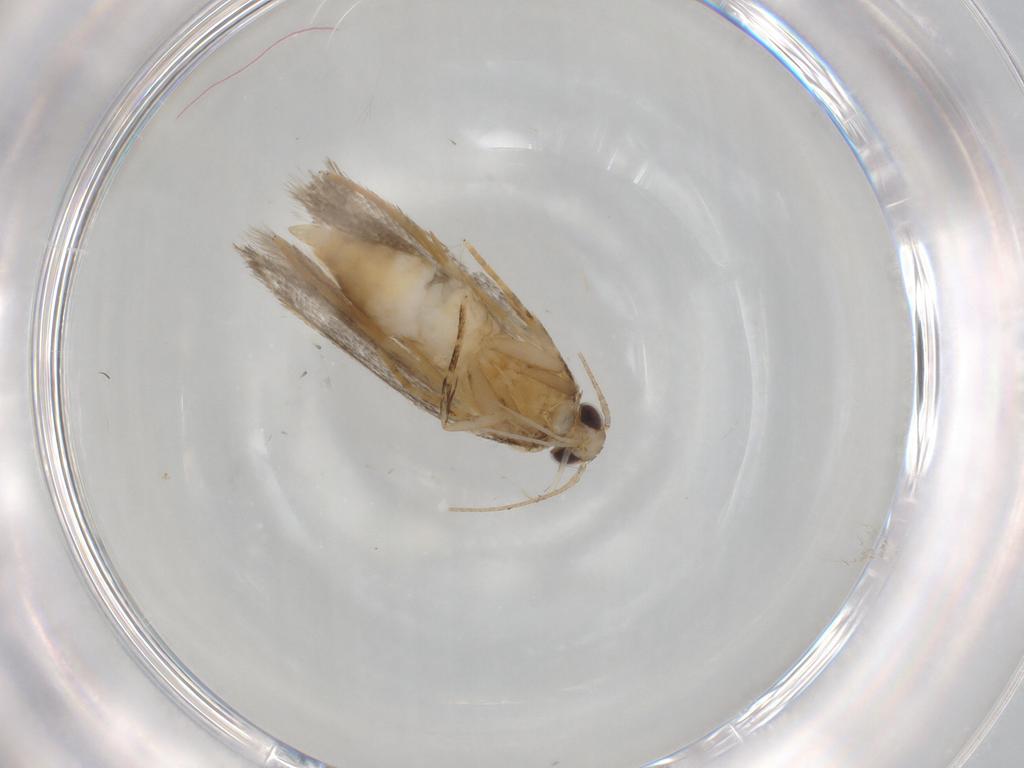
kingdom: Animalia
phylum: Arthropoda
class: Insecta
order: Lepidoptera
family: Autostichidae
